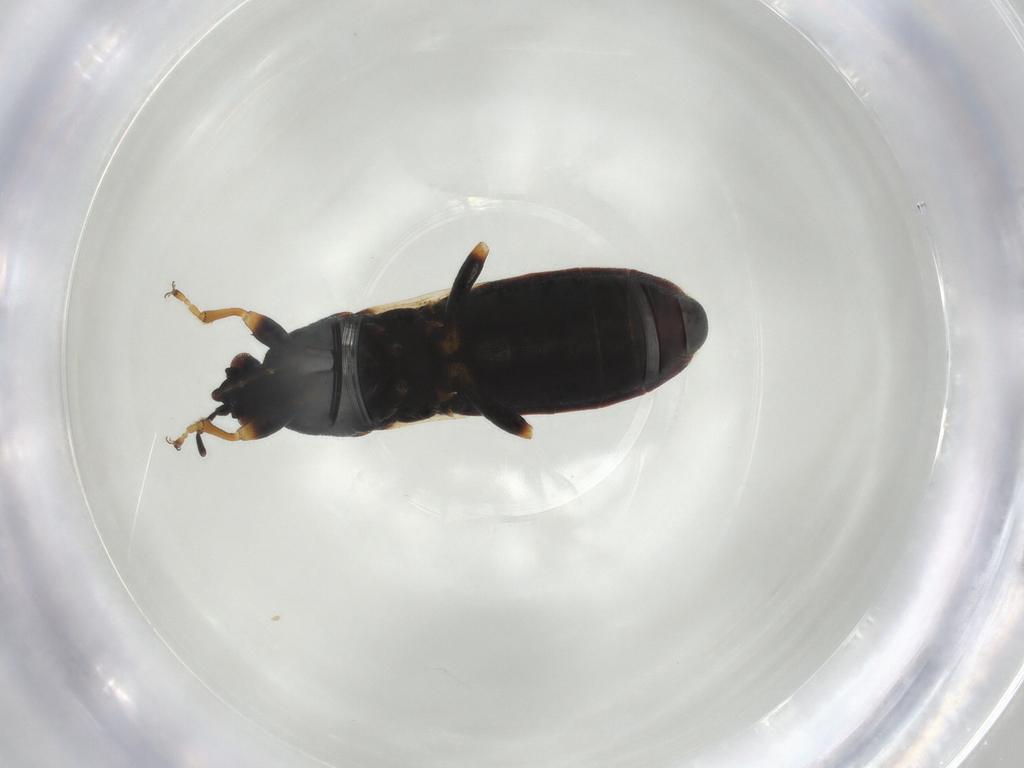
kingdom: Animalia
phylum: Arthropoda
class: Insecta
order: Hemiptera
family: Blissidae
